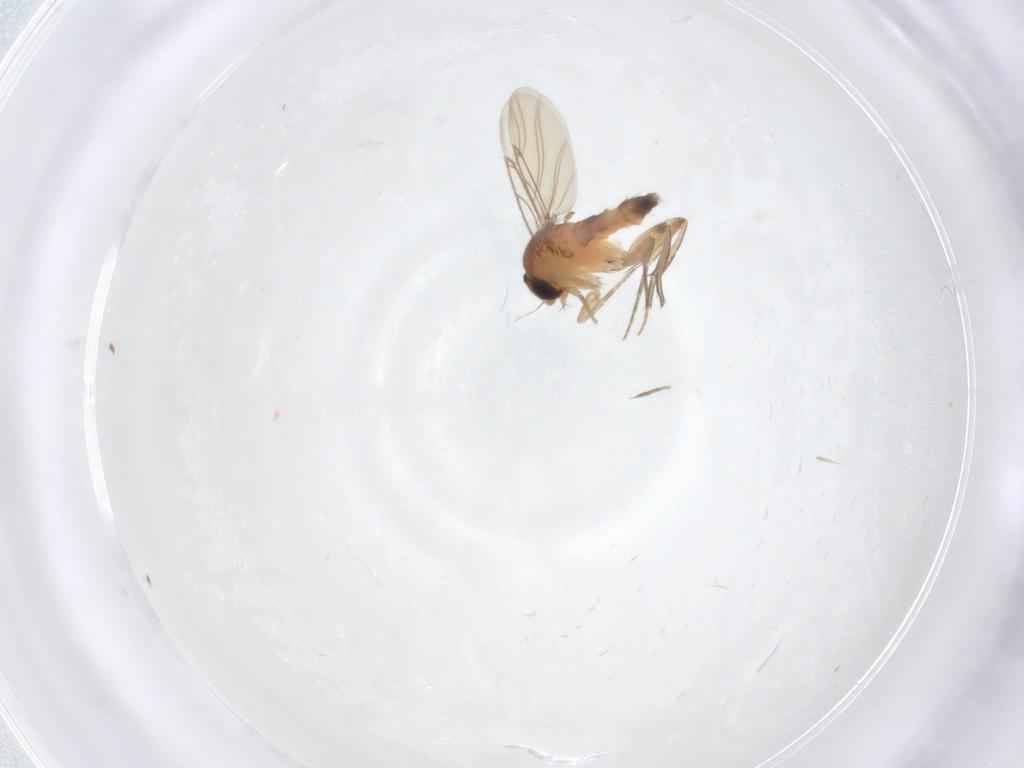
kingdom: Animalia
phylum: Arthropoda
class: Insecta
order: Diptera
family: Phoridae
